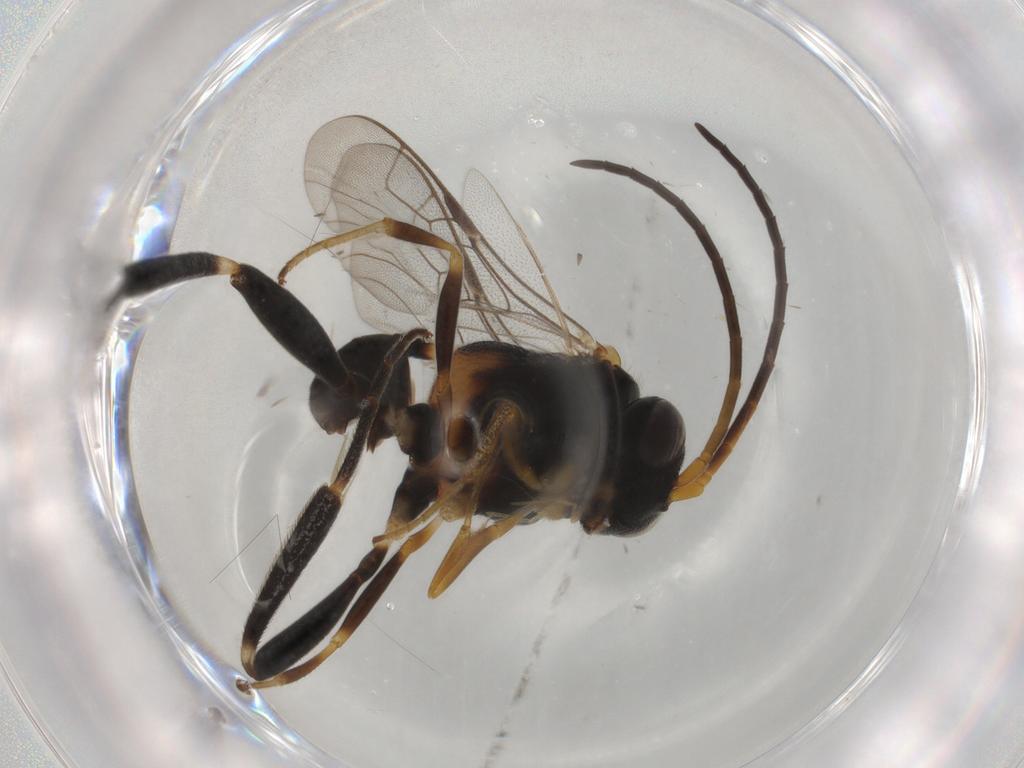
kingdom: Animalia
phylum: Arthropoda
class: Insecta
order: Hymenoptera
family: Evaniidae
